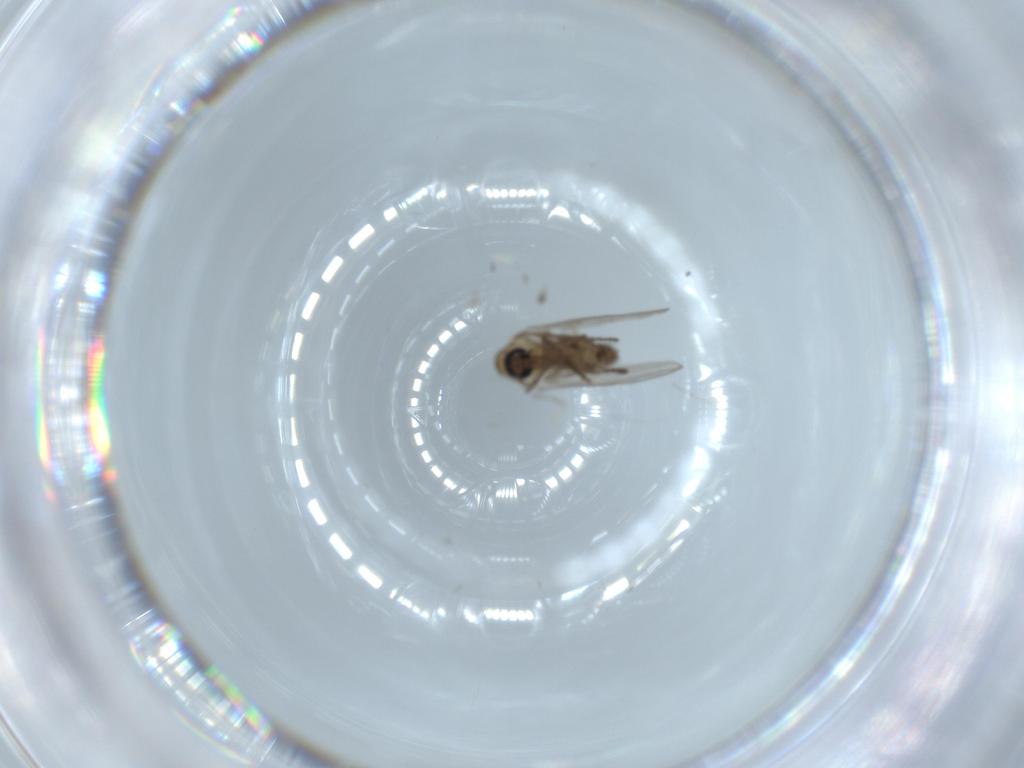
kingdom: Animalia
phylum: Arthropoda
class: Insecta
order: Diptera
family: Psychodidae
